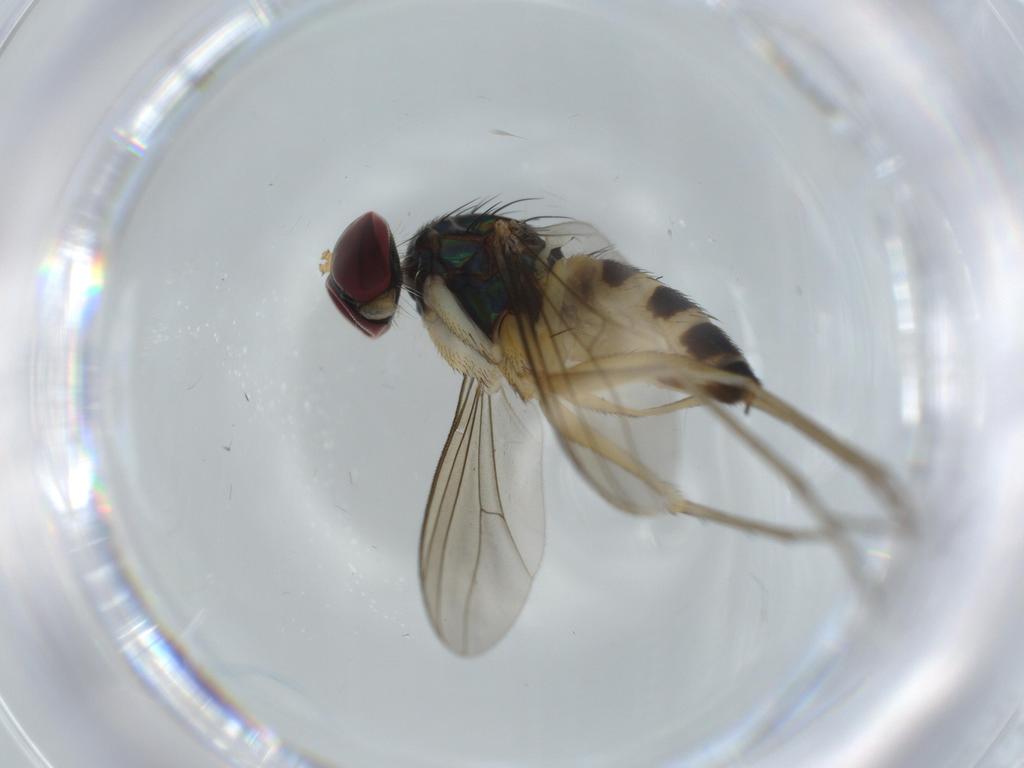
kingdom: Animalia
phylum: Arthropoda
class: Insecta
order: Diptera
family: Dolichopodidae
